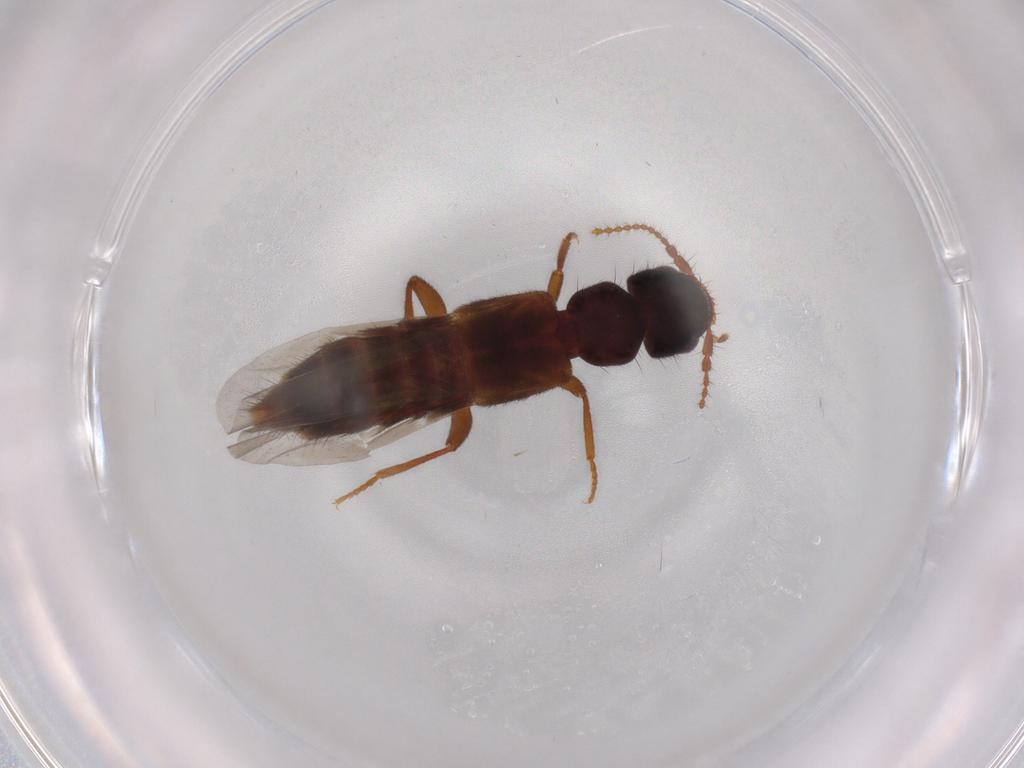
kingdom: Animalia
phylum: Arthropoda
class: Insecta
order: Coleoptera
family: Staphylinidae
